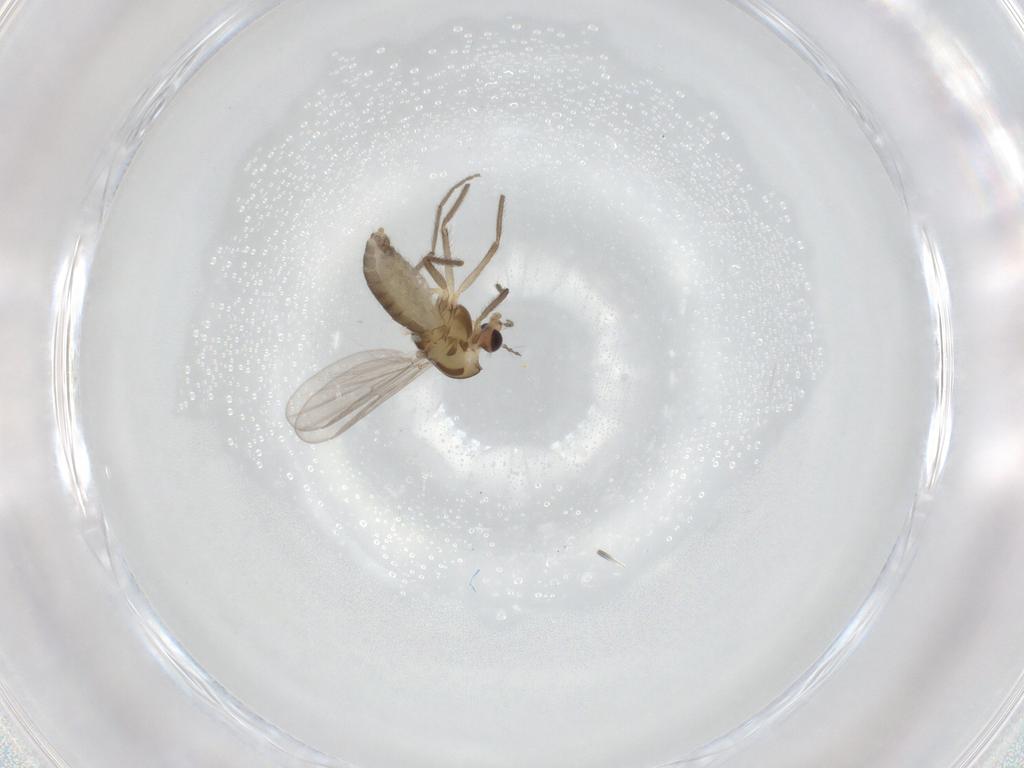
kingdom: Animalia
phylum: Arthropoda
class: Insecta
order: Diptera
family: Chironomidae
